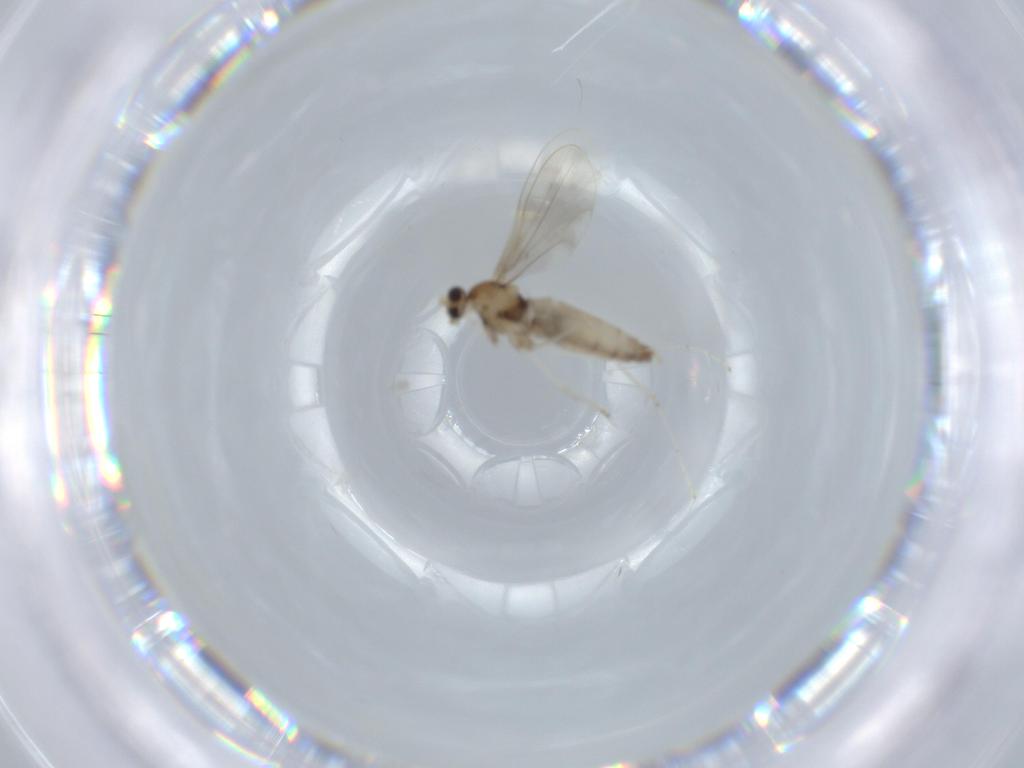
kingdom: Animalia
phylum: Arthropoda
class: Insecta
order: Diptera
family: Cecidomyiidae
